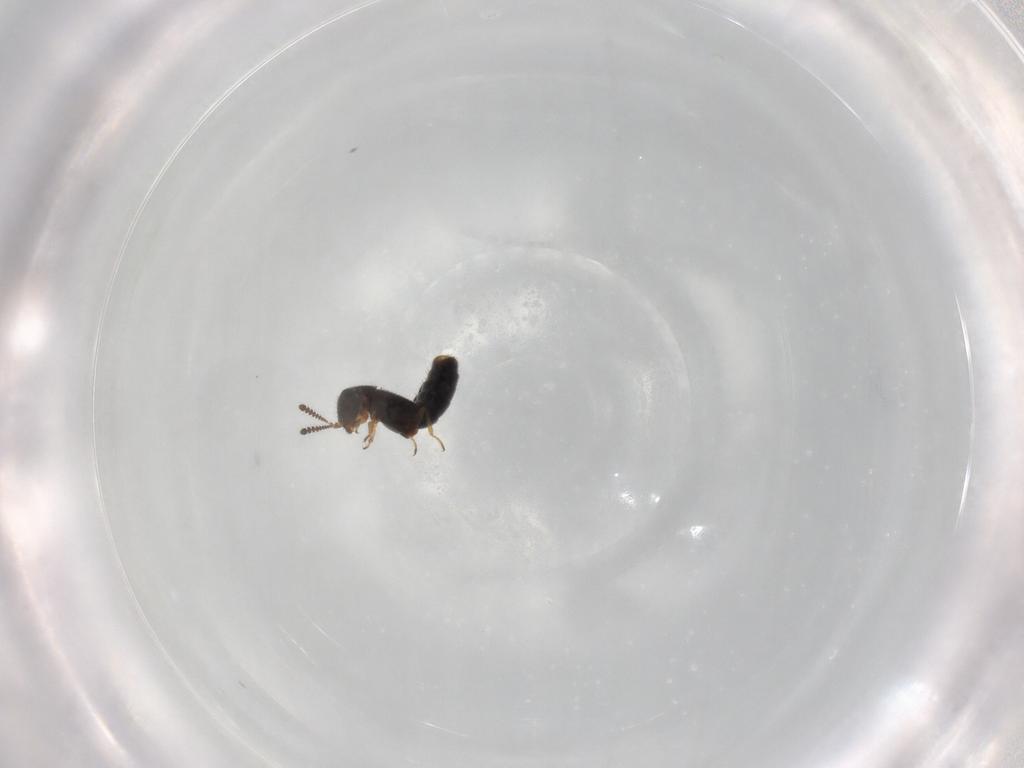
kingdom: Animalia
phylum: Arthropoda
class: Insecta
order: Coleoptera
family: Staphylinidae
